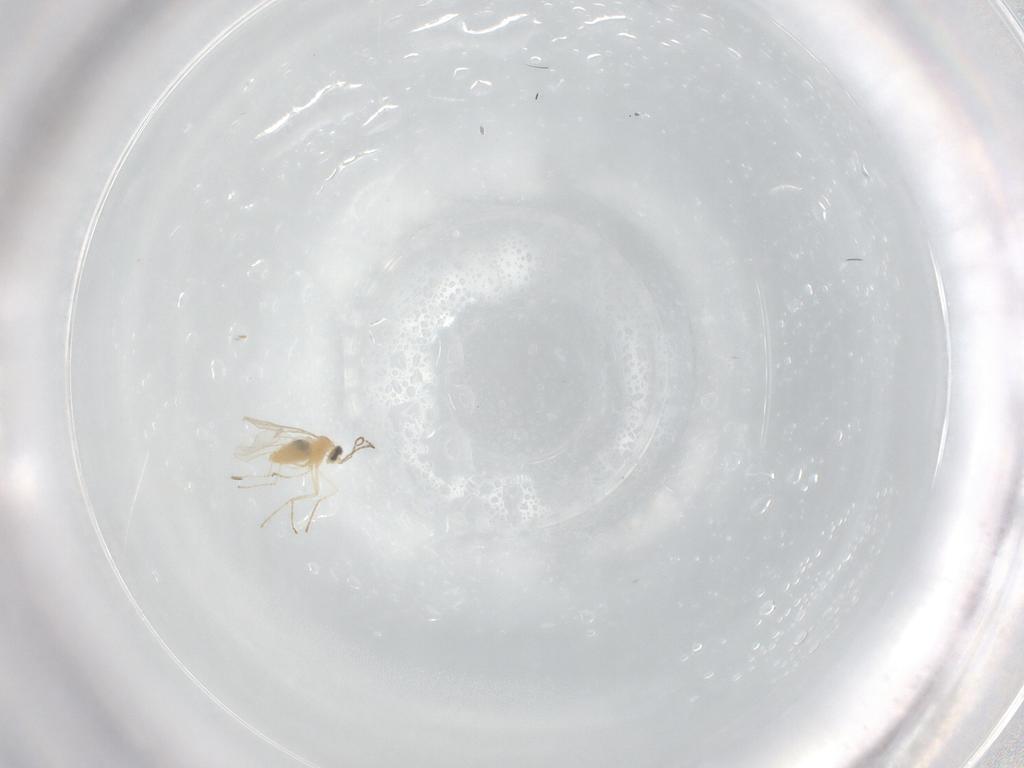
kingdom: Animalia
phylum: Arthropoda
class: Insecta
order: Diptera
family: Cecidomyiidae
